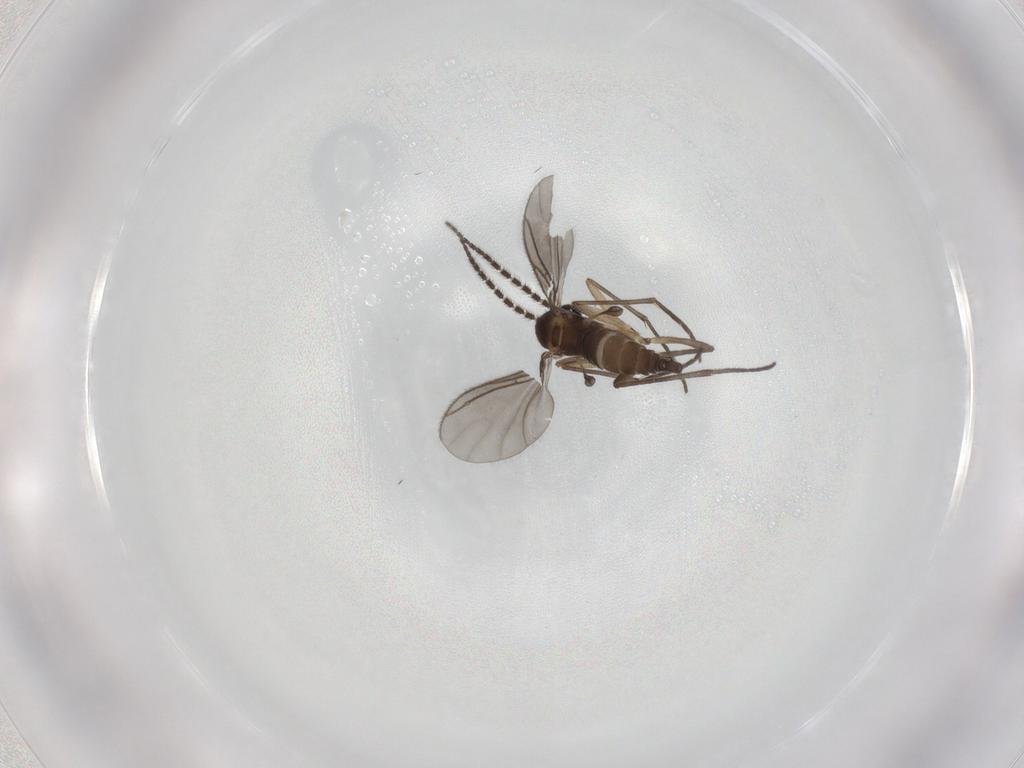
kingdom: Animalia
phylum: Arthropoda
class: Insecta
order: Diptera
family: Sciaridae
